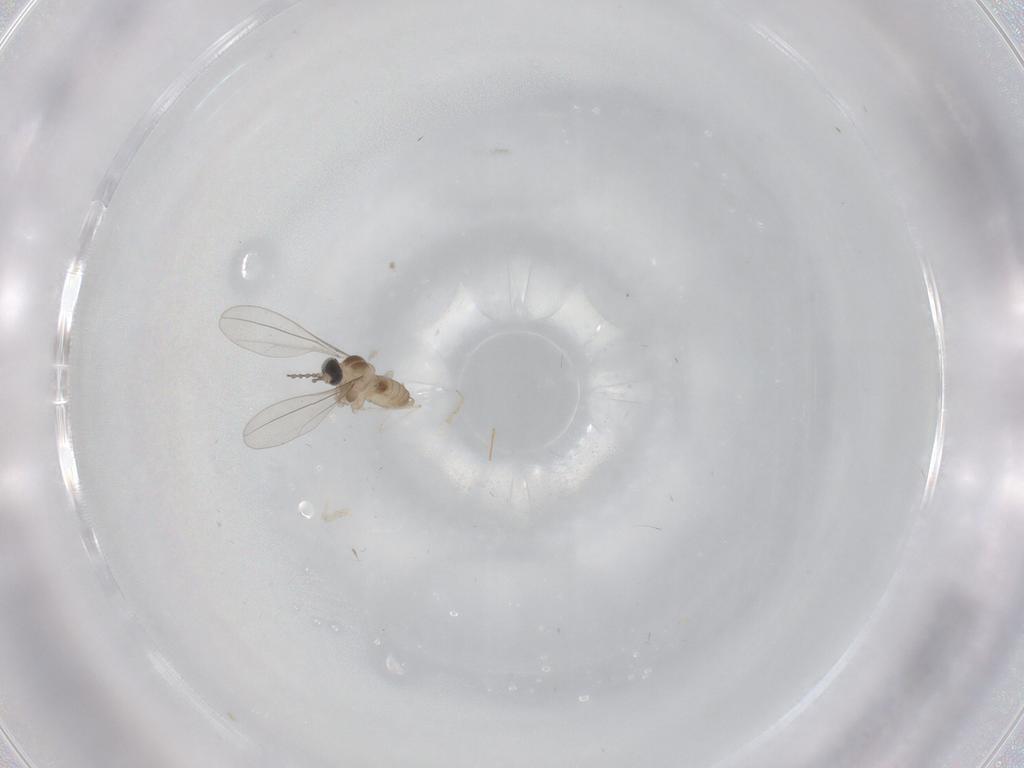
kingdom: Animalia
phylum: Arthropoda
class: Insecta
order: Diptera
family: Cecidomyiidae
